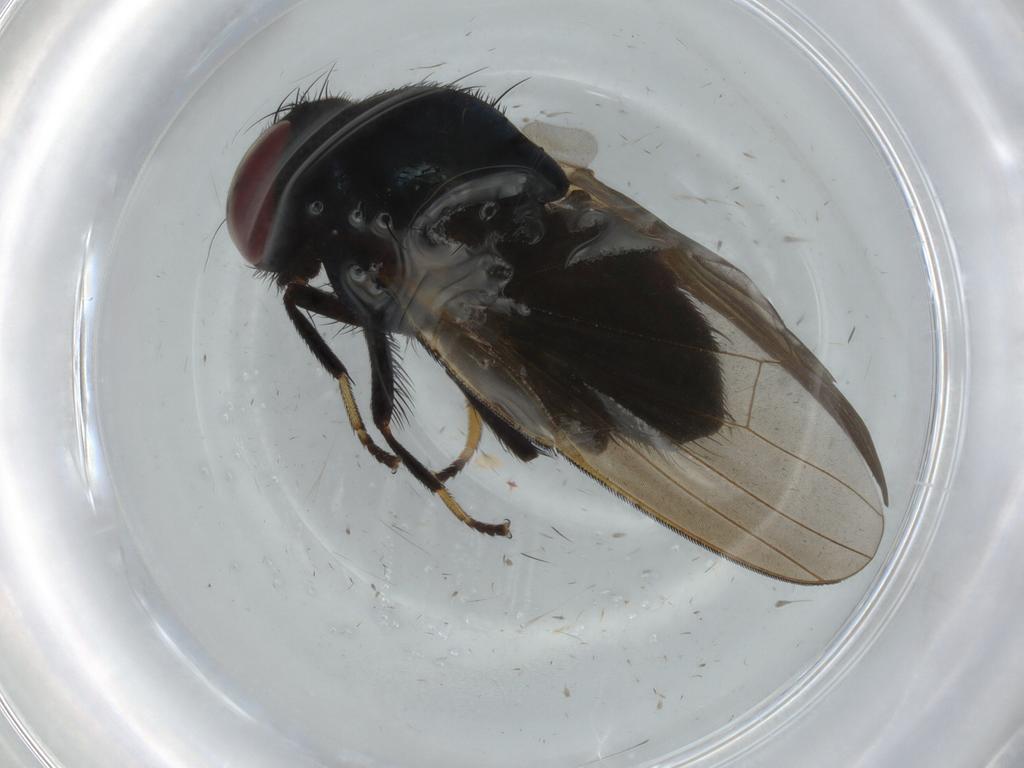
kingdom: Animalia
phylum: Arthropoda
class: Insecta
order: Diptera
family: Lonchaeidae
